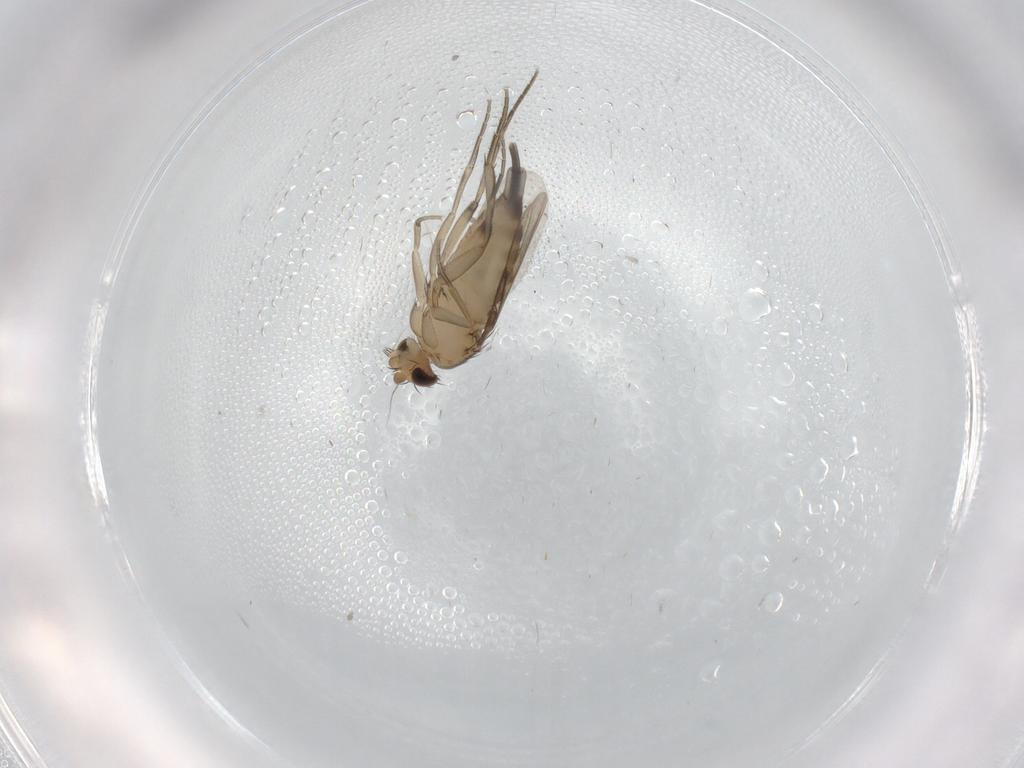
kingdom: Animalia
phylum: Arthropoda
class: Insecta
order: Diptera
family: Phoridae
